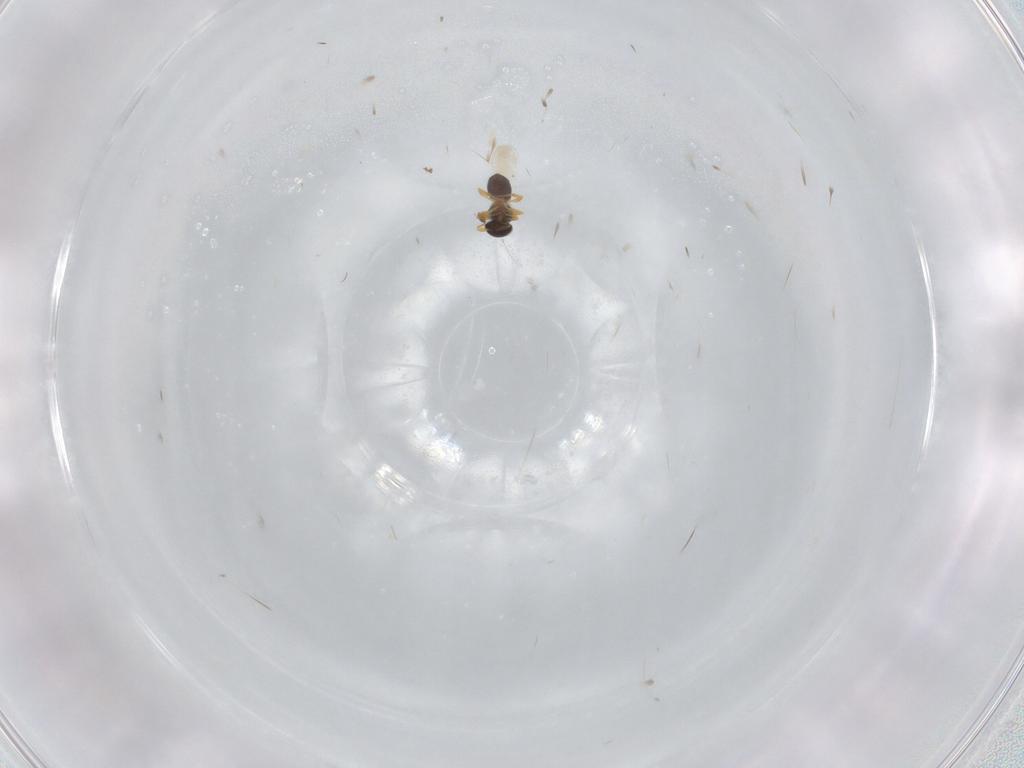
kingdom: Animalia
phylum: Arthropoda
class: Insecta
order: Hymenoptera
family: Platygastridae
